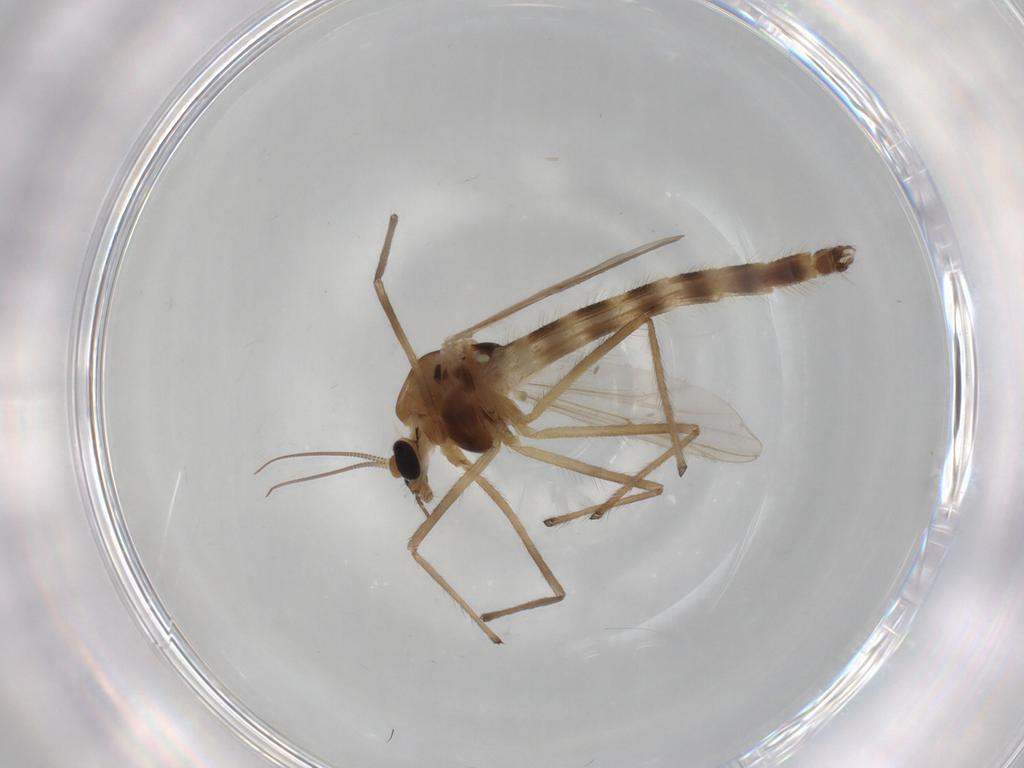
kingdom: Animalia
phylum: Arthropoda
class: Insecta
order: Diptera
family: Chironomidae
